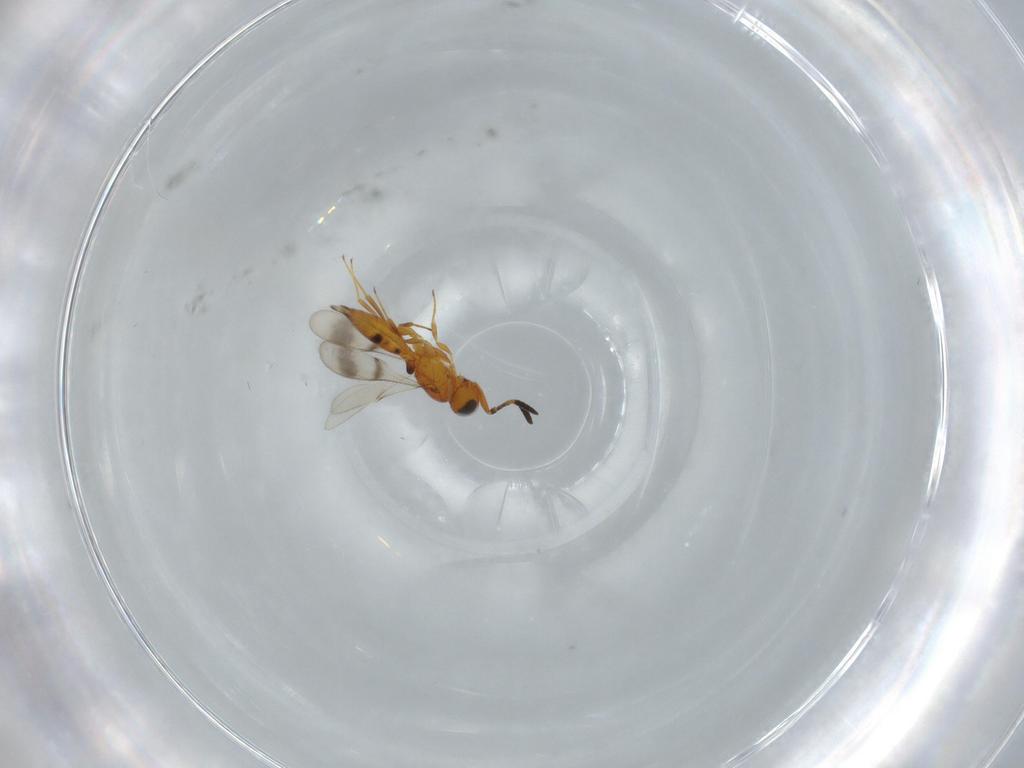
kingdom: Animalia
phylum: Arthropoda
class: Insecta
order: Hymenoptera
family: Scelionidae
